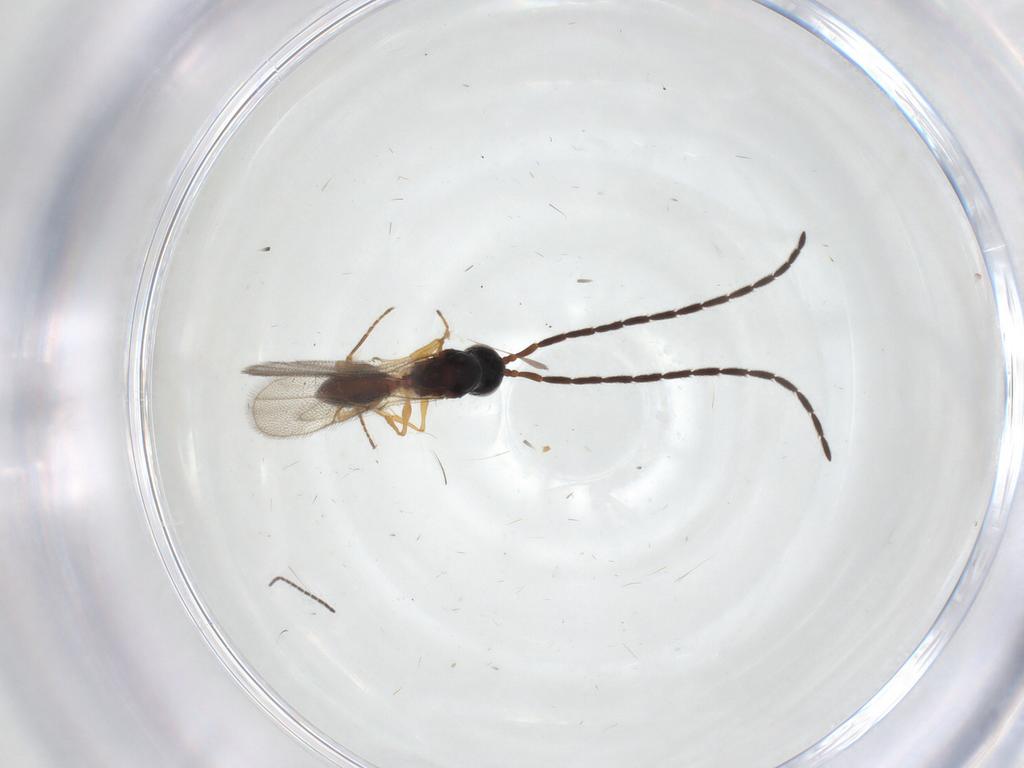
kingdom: Animalia
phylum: Arthropoda
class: Insecta
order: Hymenoptera
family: Figitidae
